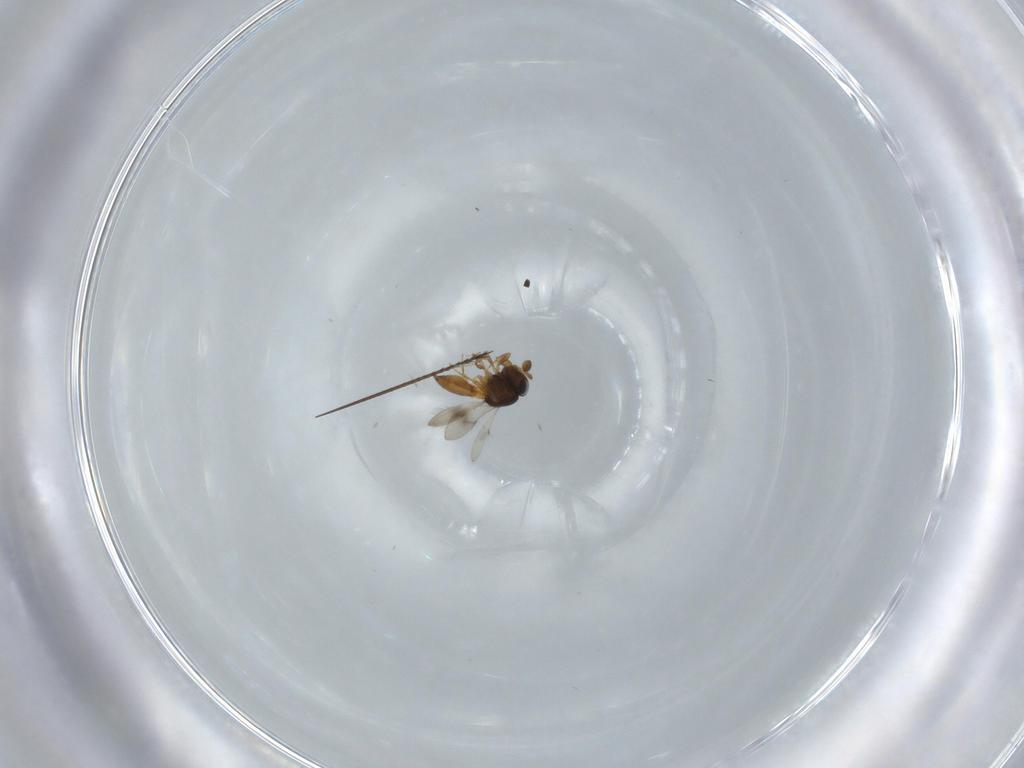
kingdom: Animalia
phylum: Arthropoda
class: Insecta
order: Hymenoptera
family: Scelionidae
